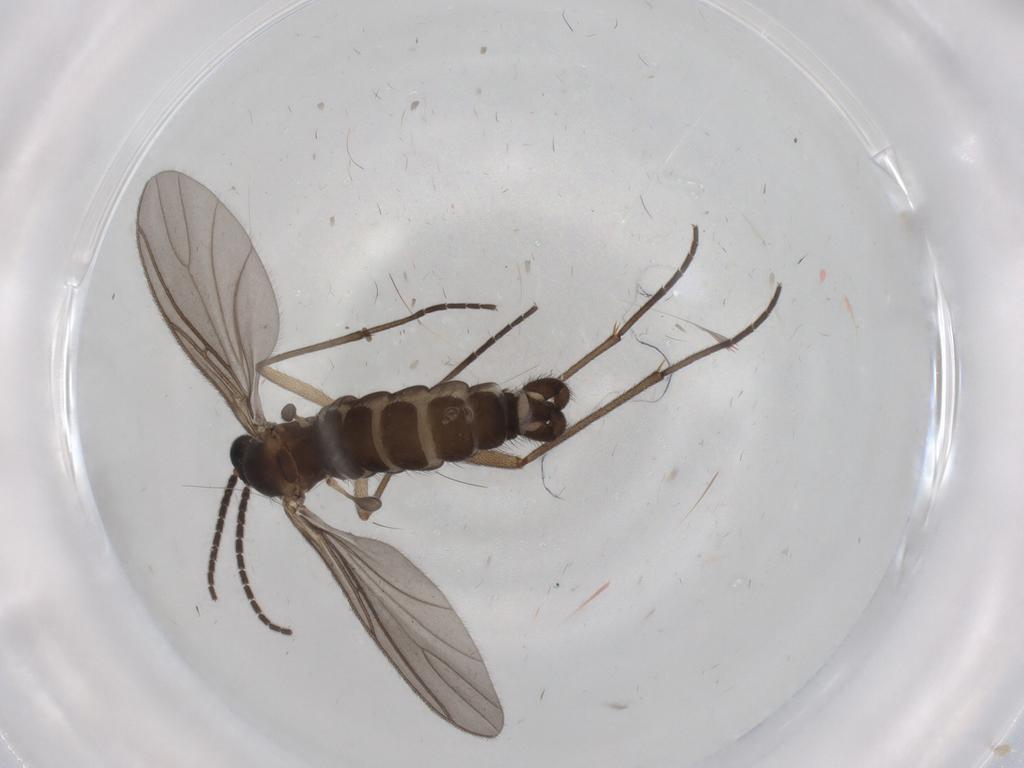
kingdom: Animalia
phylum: Arthropoda
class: Insecta
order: Diptera
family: Sciaridae
